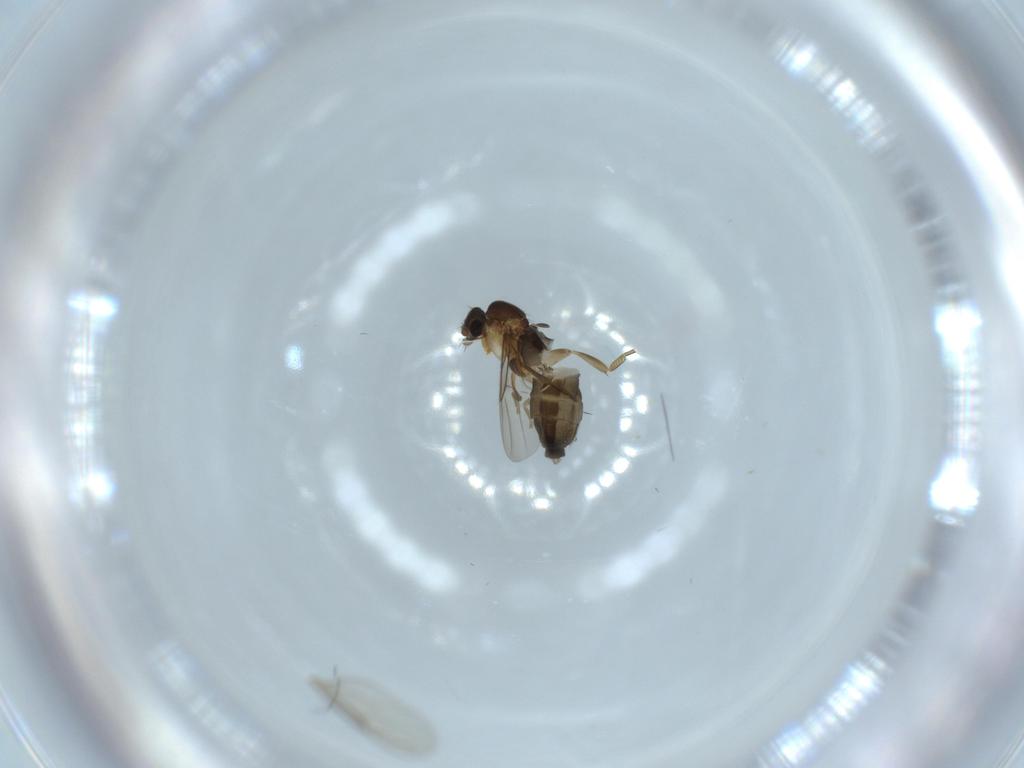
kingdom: Animalia
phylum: Arthropoda
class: Insecta
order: Diptera
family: Phoridae
